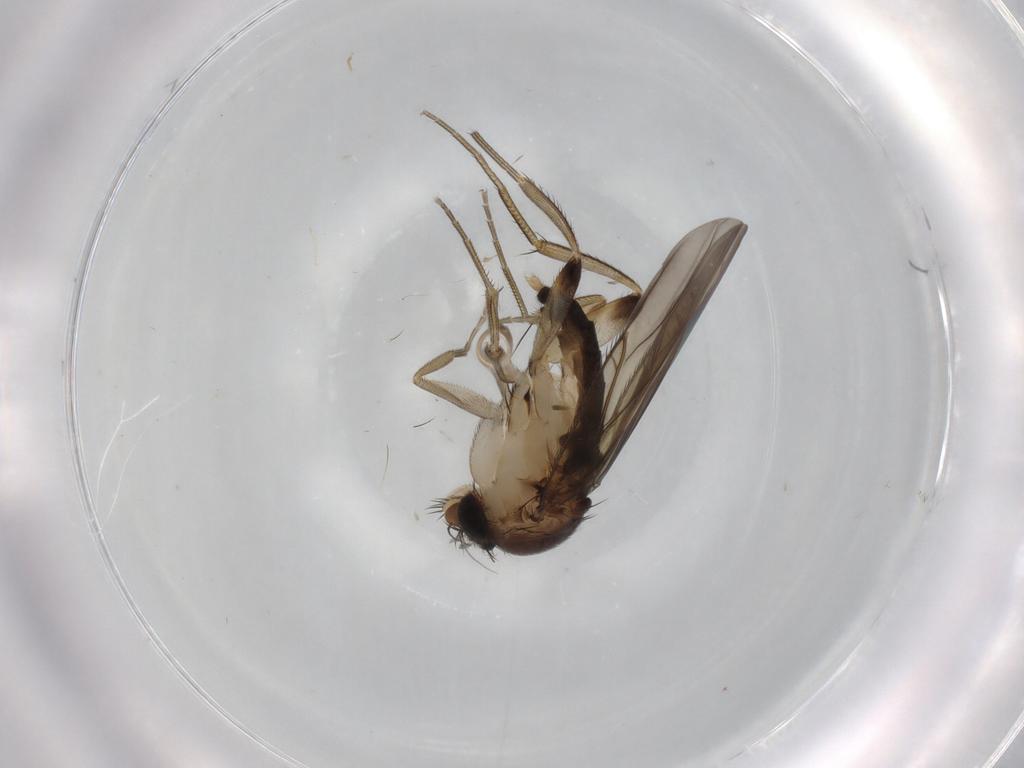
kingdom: Animalia
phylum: Arthropoda
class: Insecta
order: Diptera
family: Phoridae
